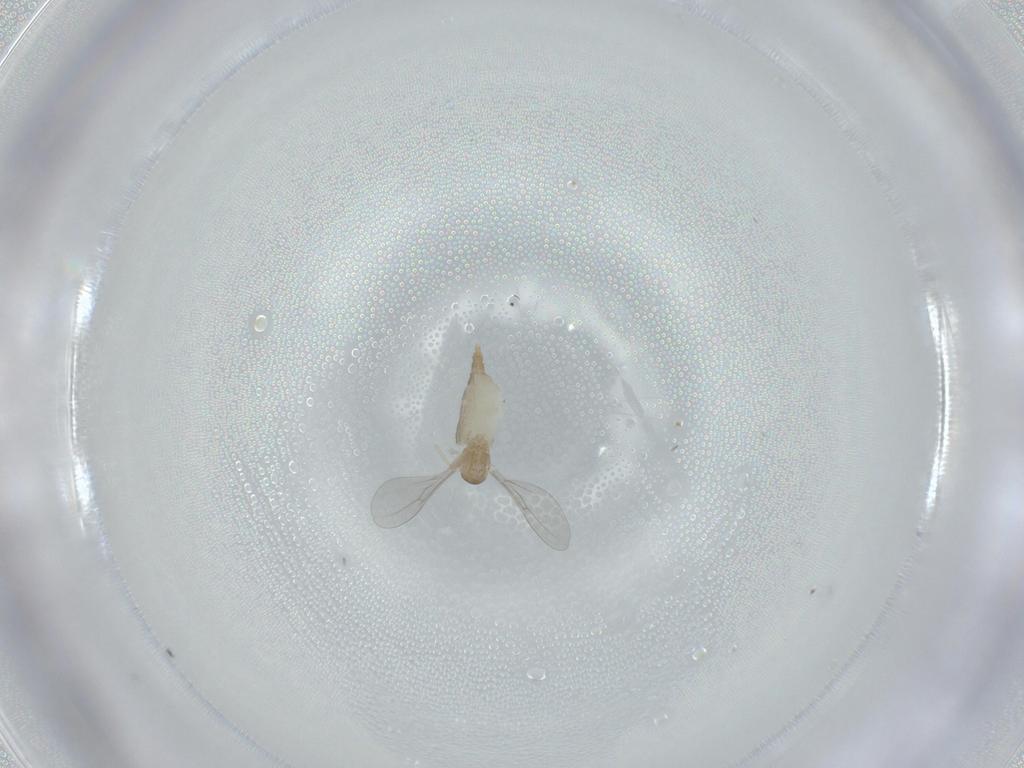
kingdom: Animalia
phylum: Arthropoda
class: Insecta
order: Diptera
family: Cecidomyiidae
